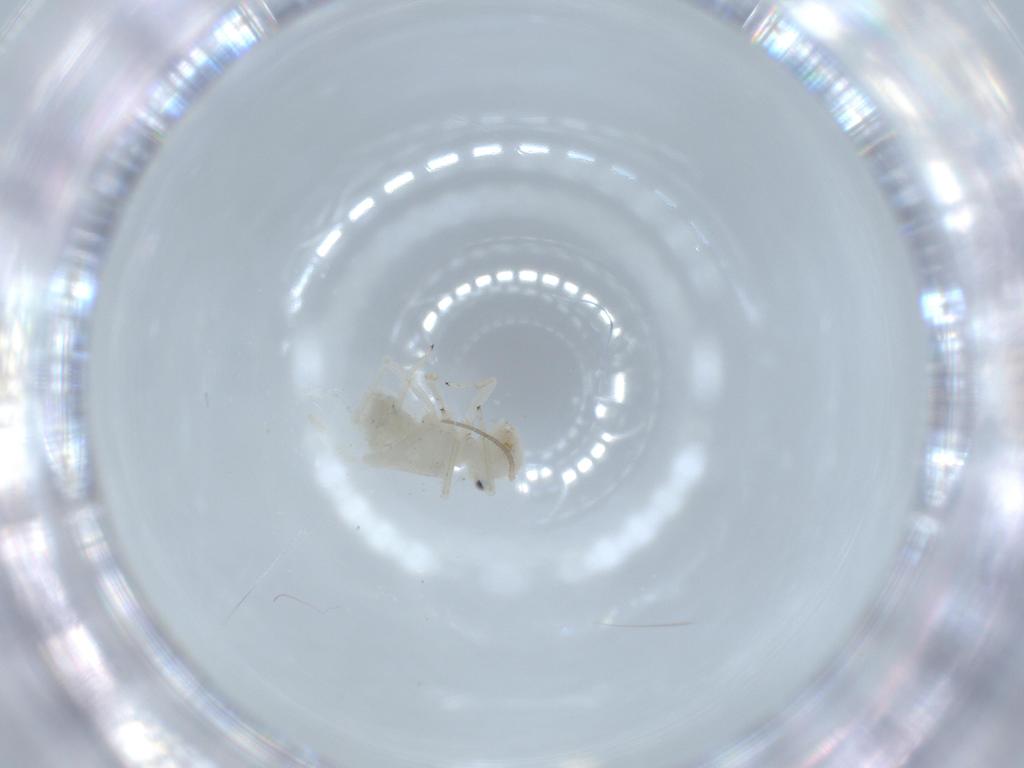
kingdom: Animalia
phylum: Arthropoda
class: Insecta
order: Psocodea
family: Caeciliusidae
